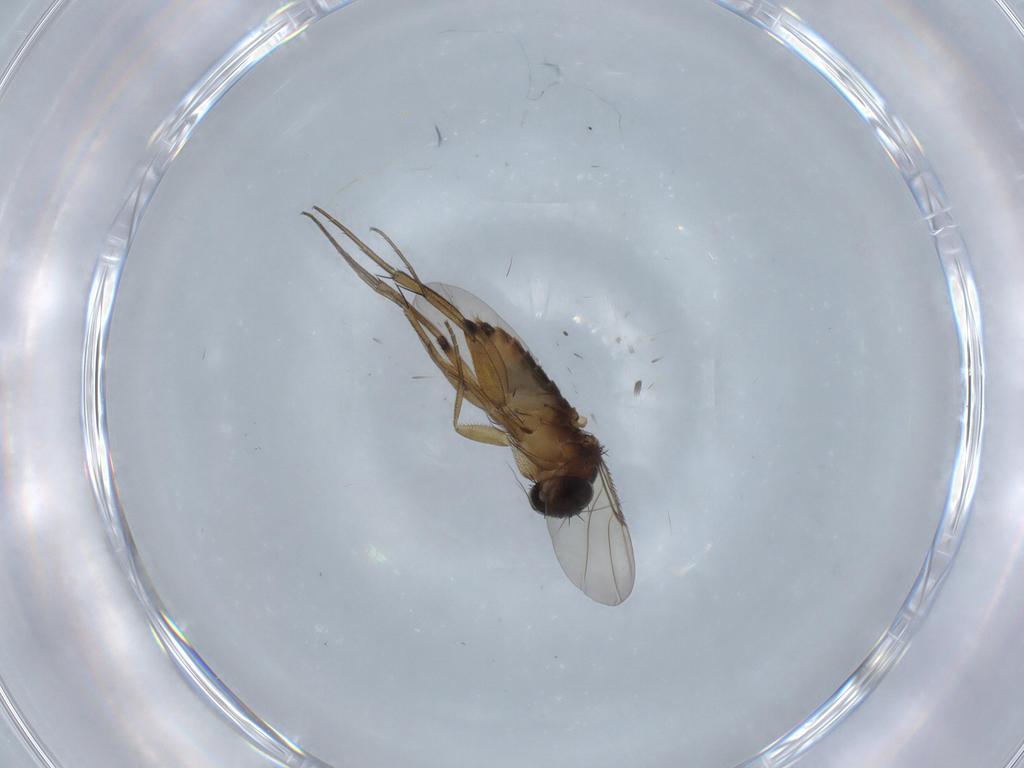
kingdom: Animalia
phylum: Arthropoda
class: Insecta
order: Diptera
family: Phoridae
